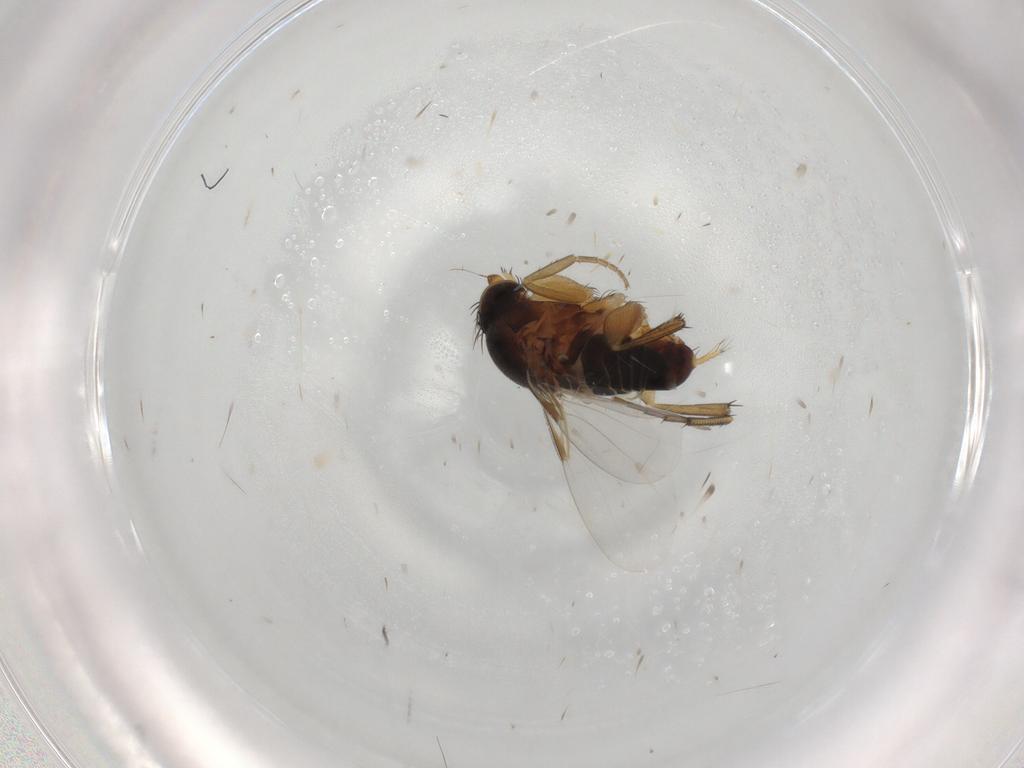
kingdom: Animalia
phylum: Arthropoda
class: Insecta
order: Diptera
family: Phoridae
